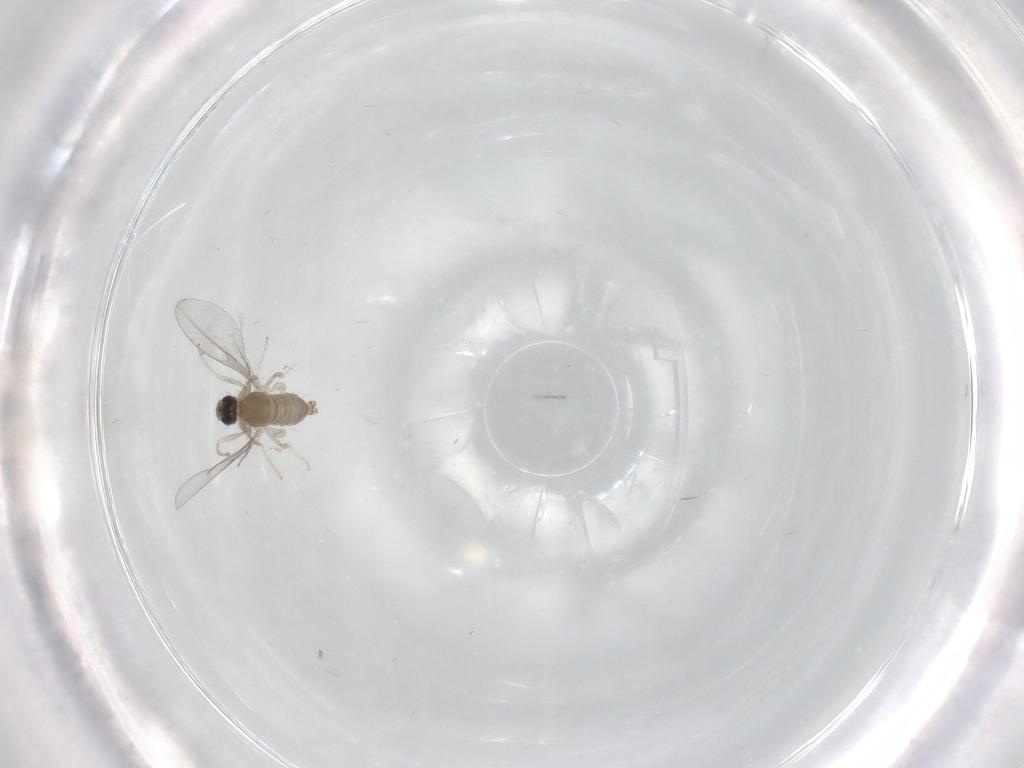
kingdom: Animalia
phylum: Arthropoda
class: Insecta
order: Diptera
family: Cecidomyiidae
